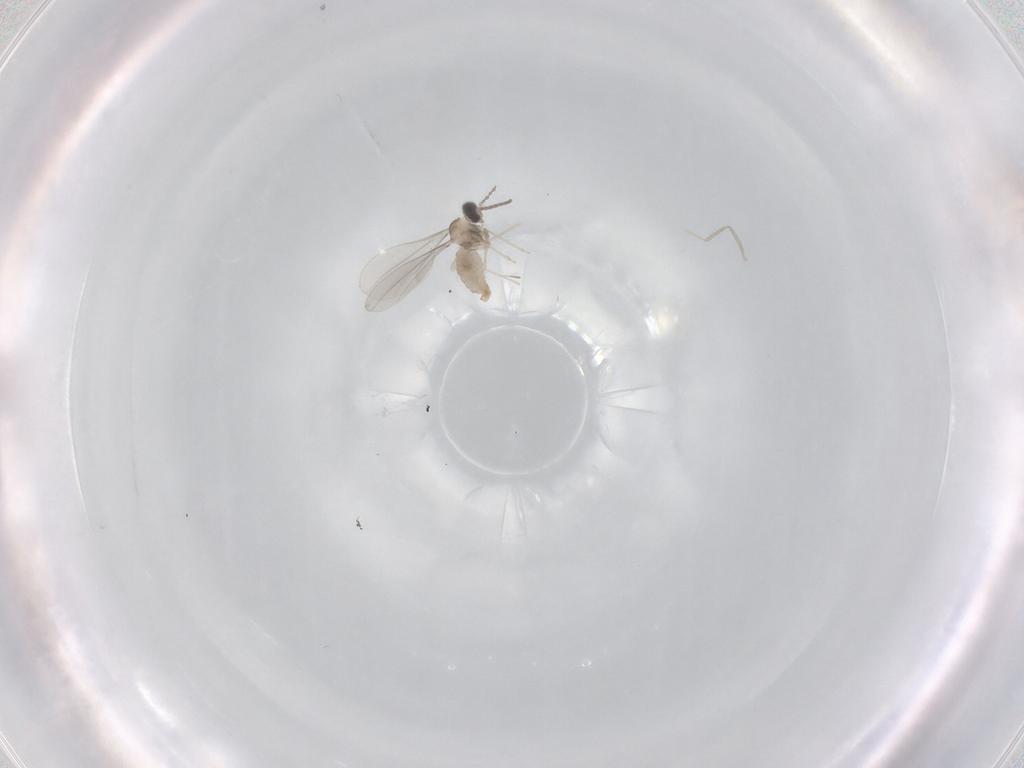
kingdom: Animalia
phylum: Arthropoda
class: Insecta
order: Diptera
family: Cecidomyiidae
